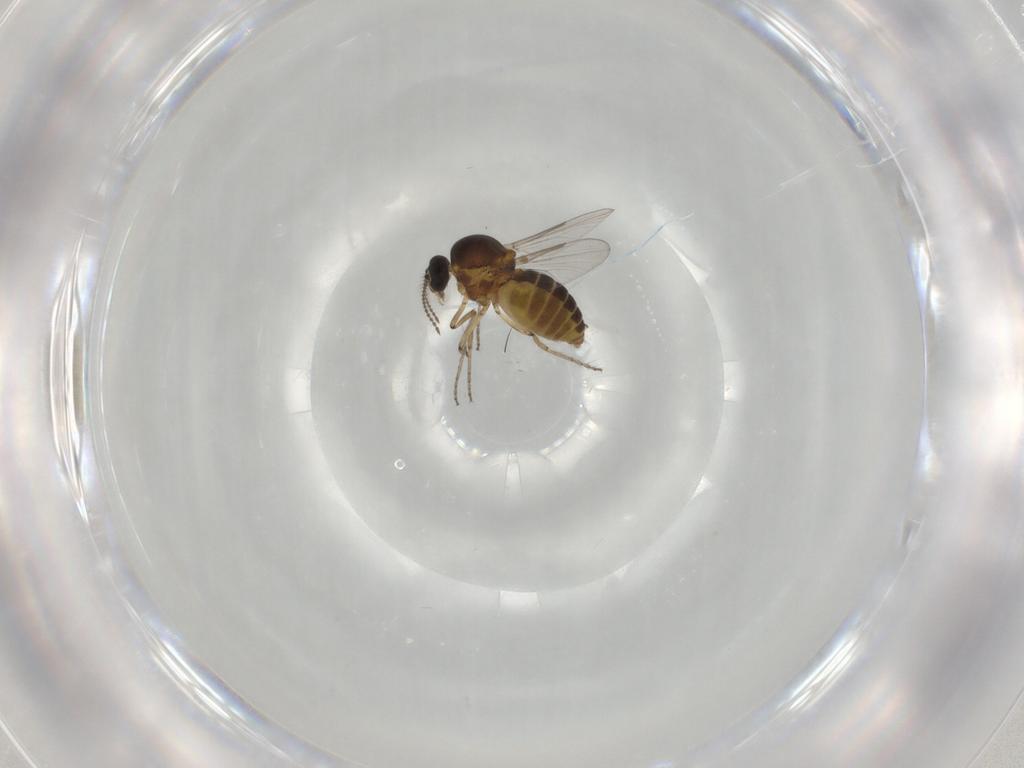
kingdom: Animalia
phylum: Arthropoda
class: Insecta
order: Diptera
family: Ceratopogonidae
